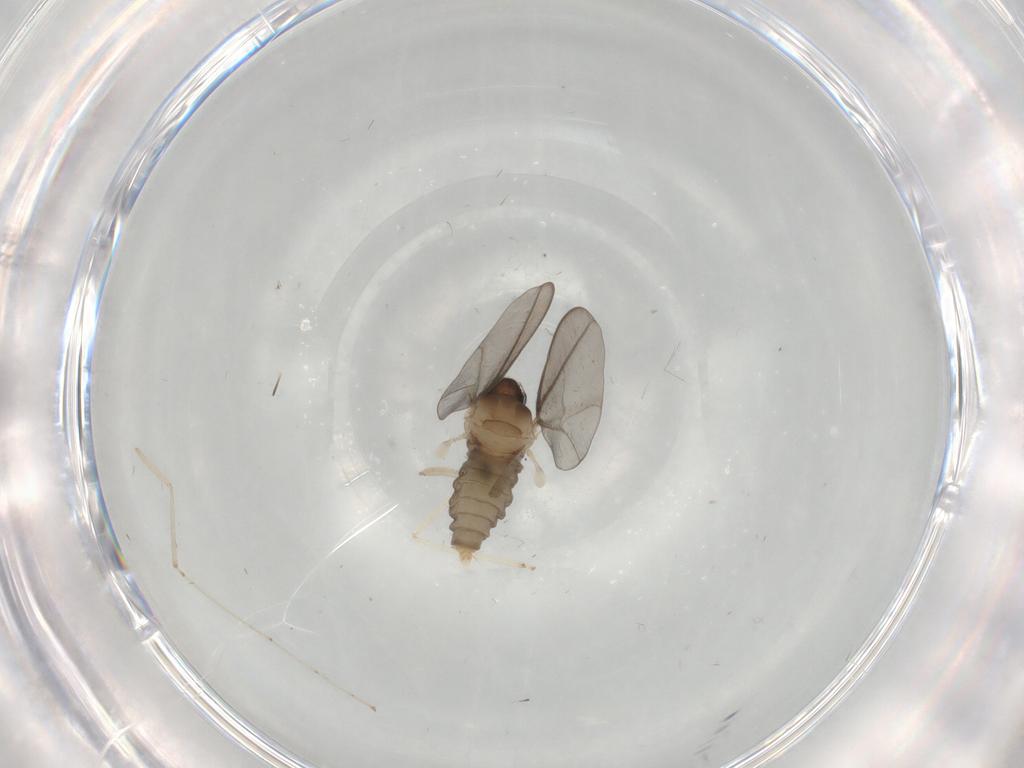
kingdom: Animalia
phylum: Arthropoda
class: Insecta
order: Diptera
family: Cecidomyiidae
